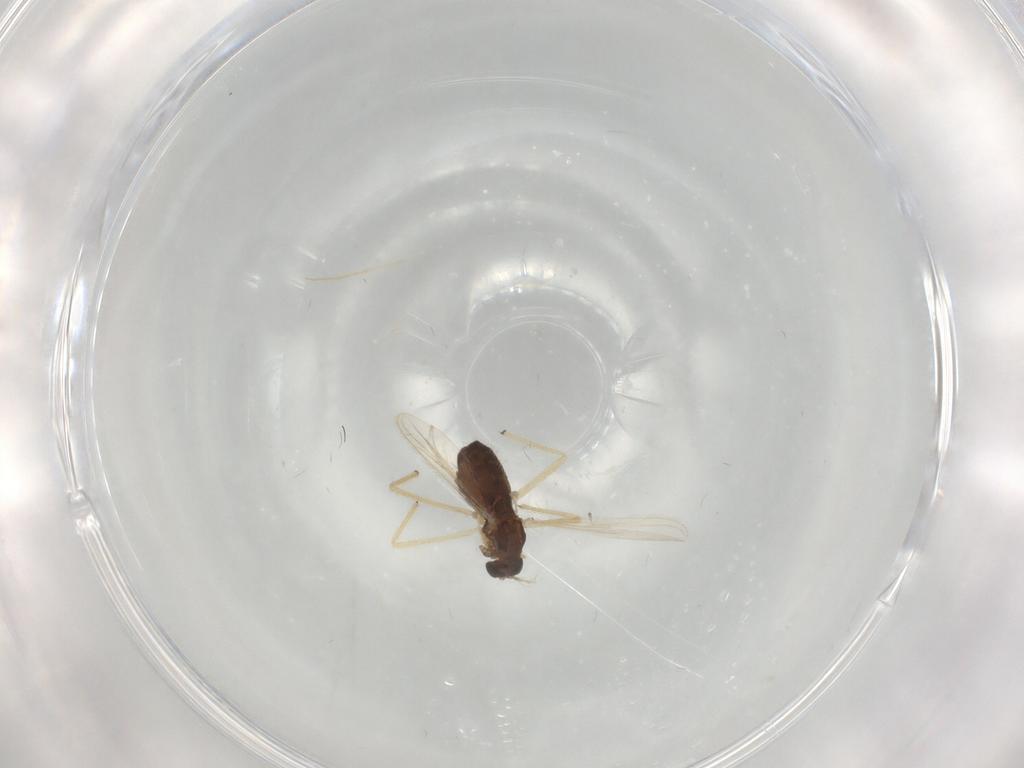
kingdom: Animalia
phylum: Arthropoda
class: Insecta
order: Diptera
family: Chironomidae
